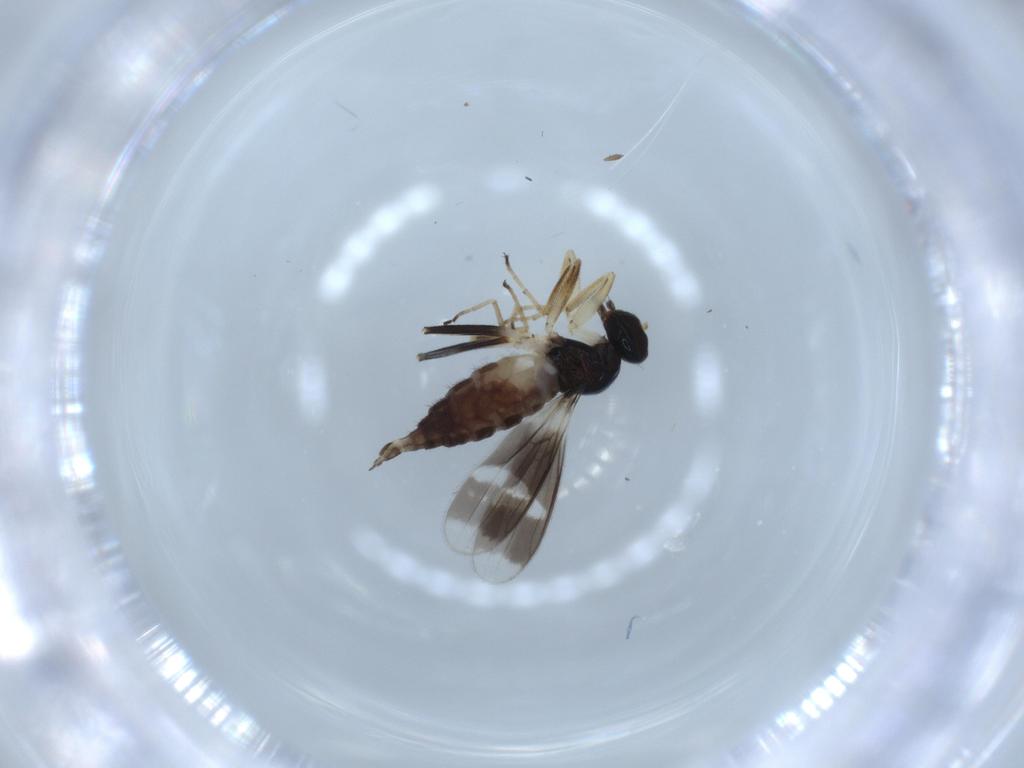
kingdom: Animalia
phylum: Arthropoda
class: Insecta
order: Diptera
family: Hybotidae
